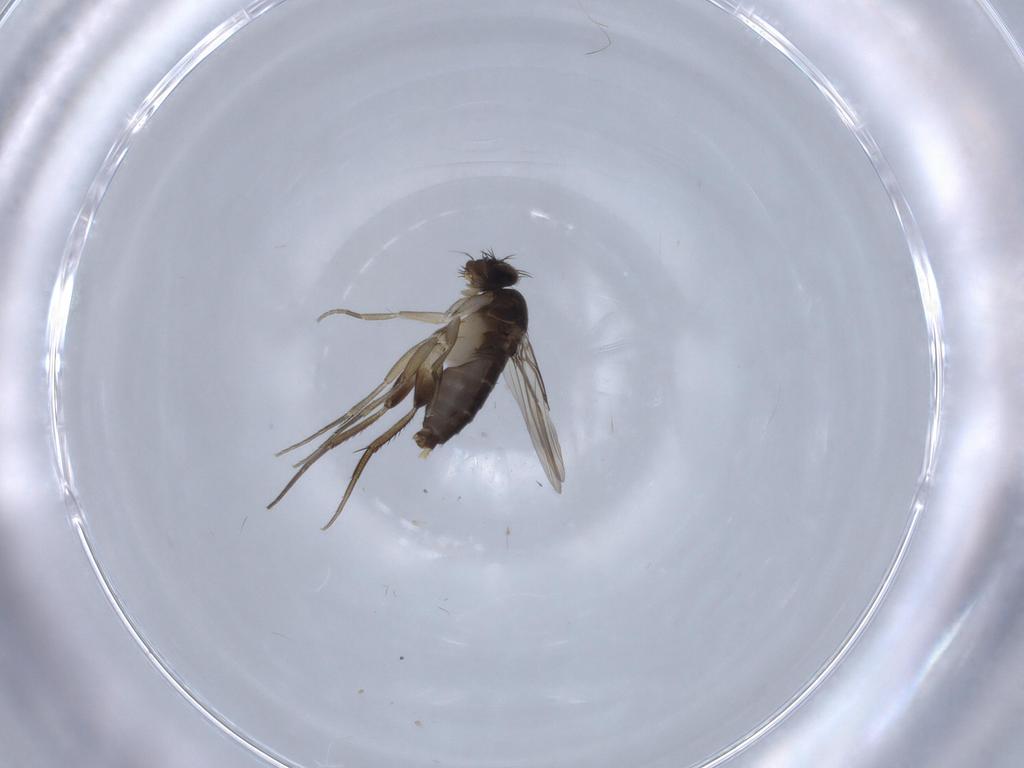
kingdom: Animalia
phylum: Arthropoda
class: Insecta
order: Diptera
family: Phoridae
